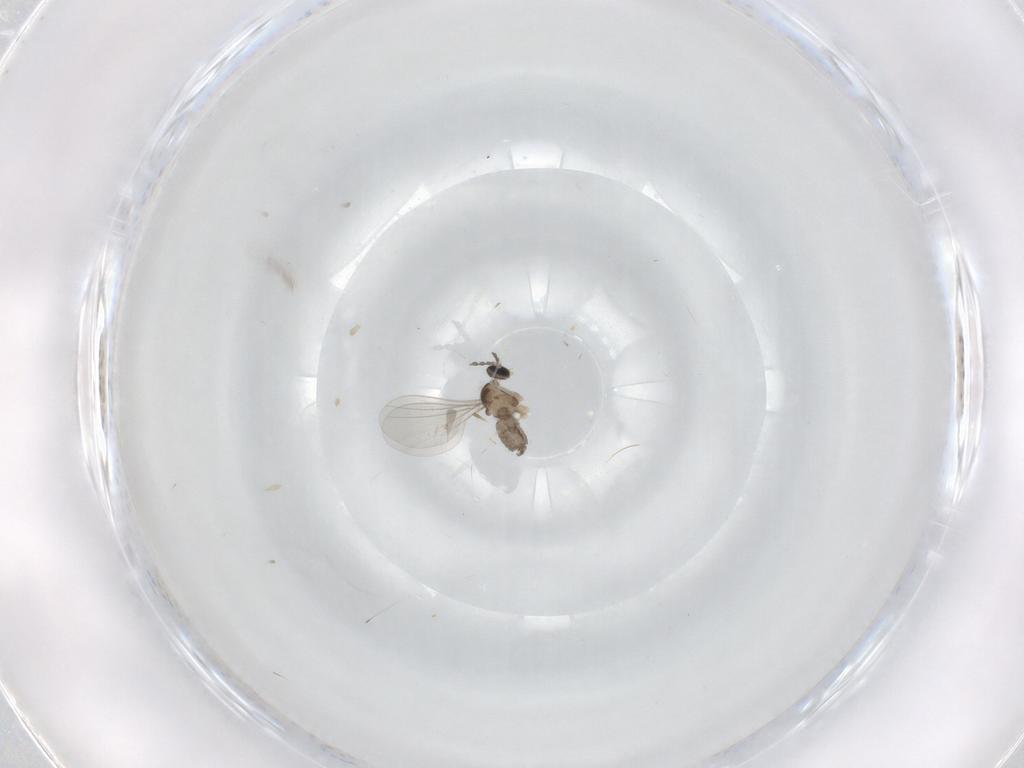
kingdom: Animalia
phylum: Arthropoda
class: Insecta
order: Diptera
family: Cecidomyiidae
